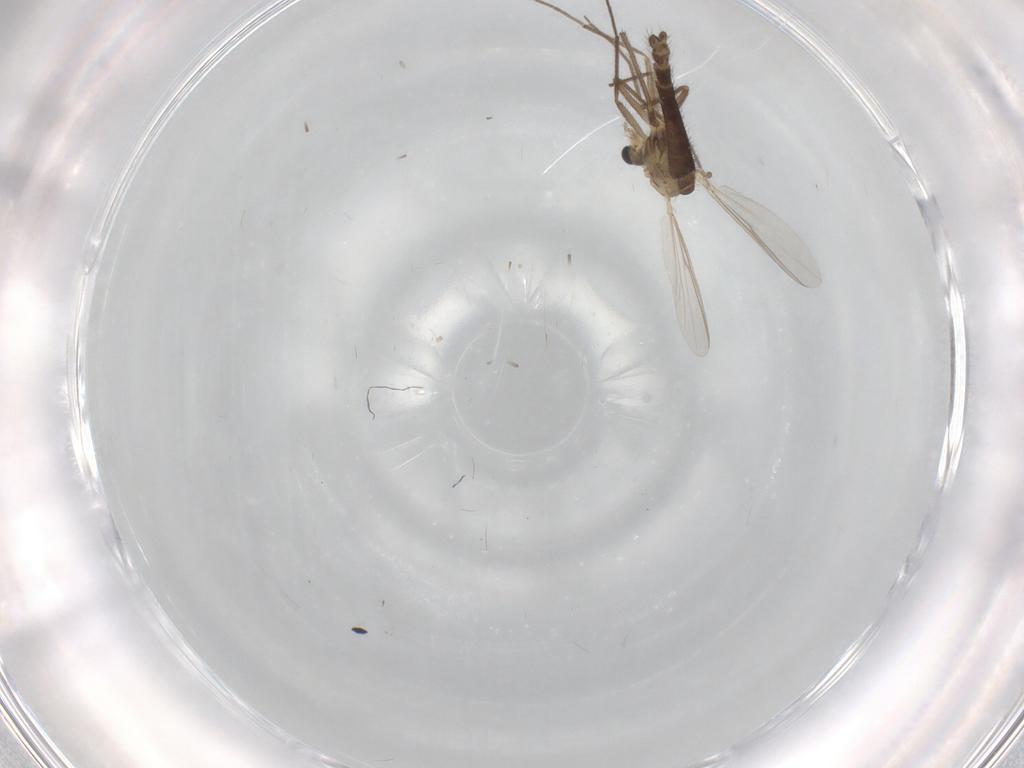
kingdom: Animalia
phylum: Arthropoda
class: Insecta
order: Diptera
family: Chironomidae
